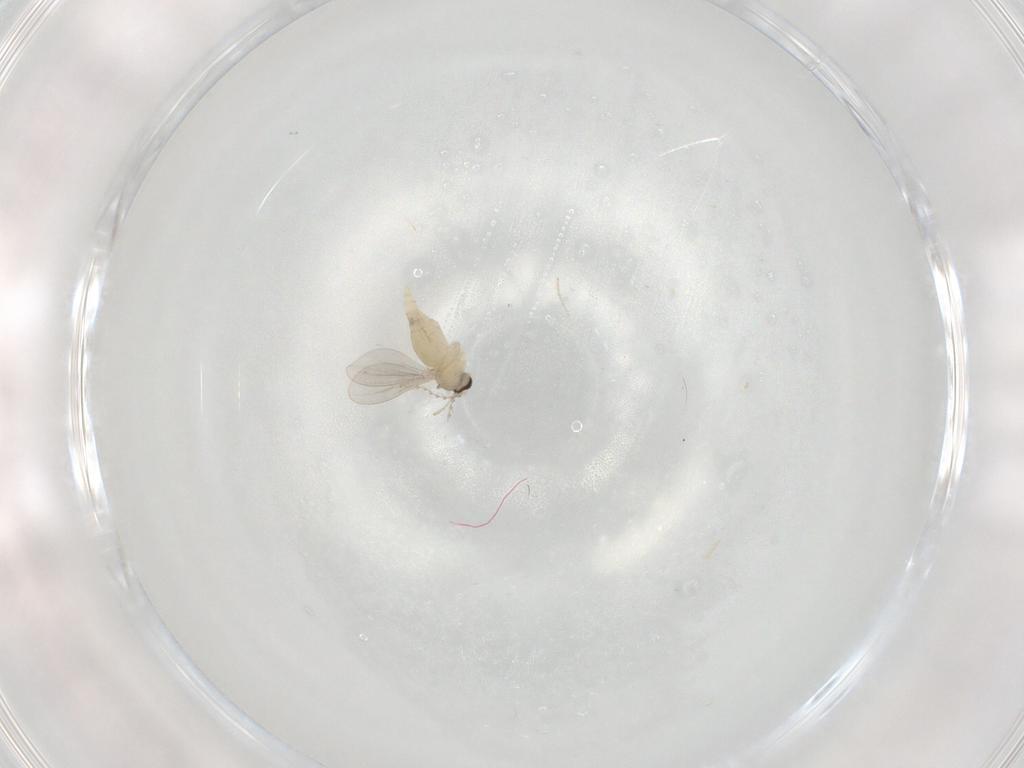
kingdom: Animalia
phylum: Arthropoda
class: Insecta
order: Diptera
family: Cecidomyiidae
